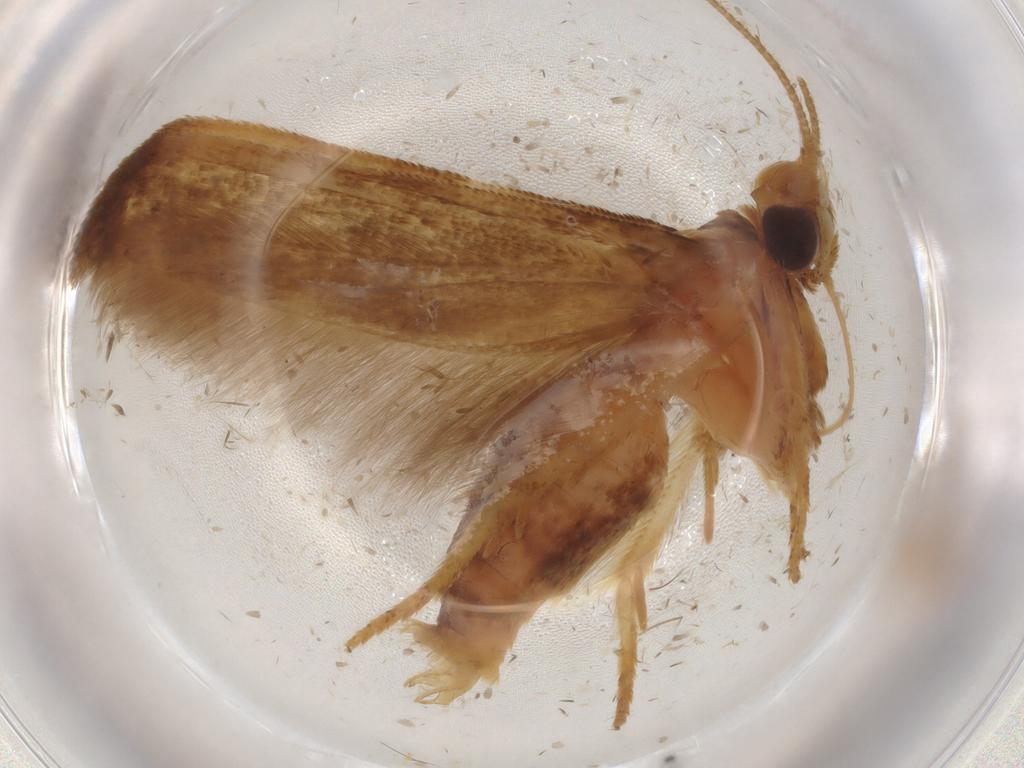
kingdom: Animalia
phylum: Arthropoda
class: Insecta
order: Lepidoptera
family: Blastobasidae
